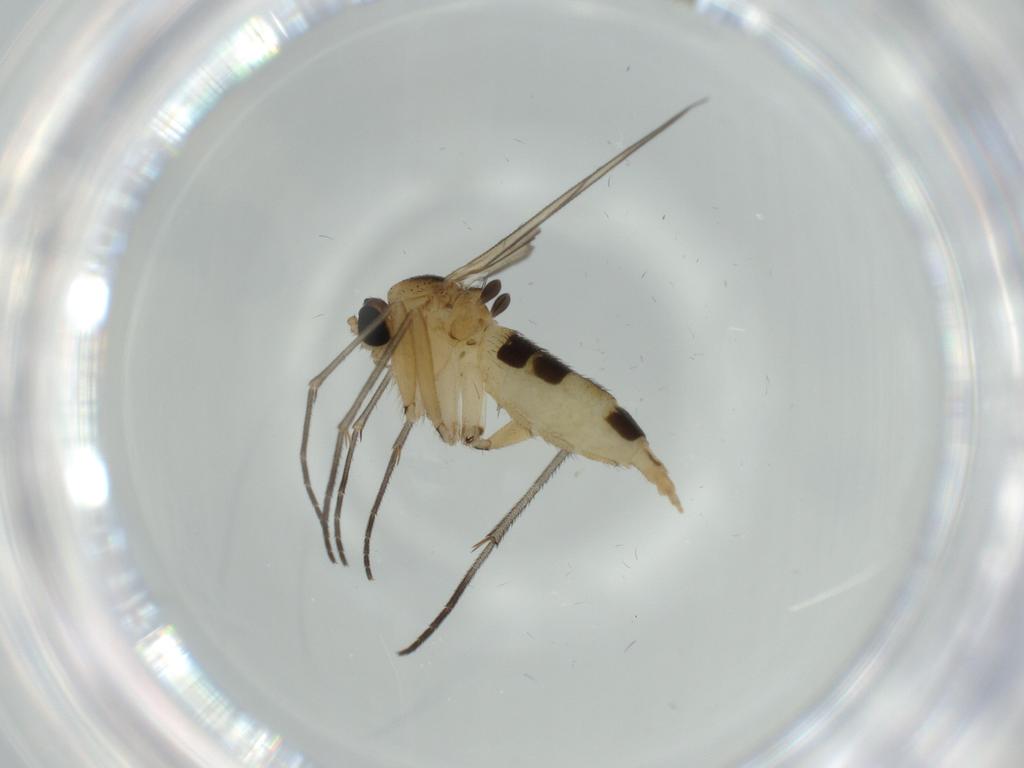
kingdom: Animalia
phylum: Arthropoda
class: Insecta
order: Diptera
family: Sciaridae
